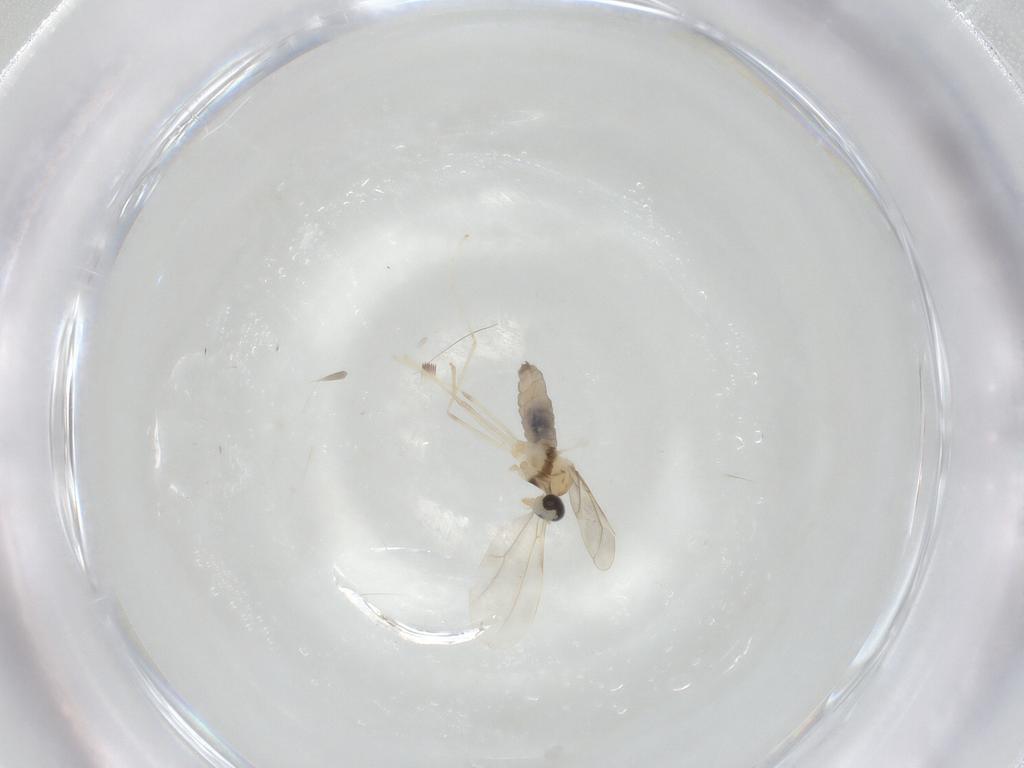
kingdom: Animalia
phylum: Arthropoda
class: Insecta
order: Diptera
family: Cecidomyiidae
